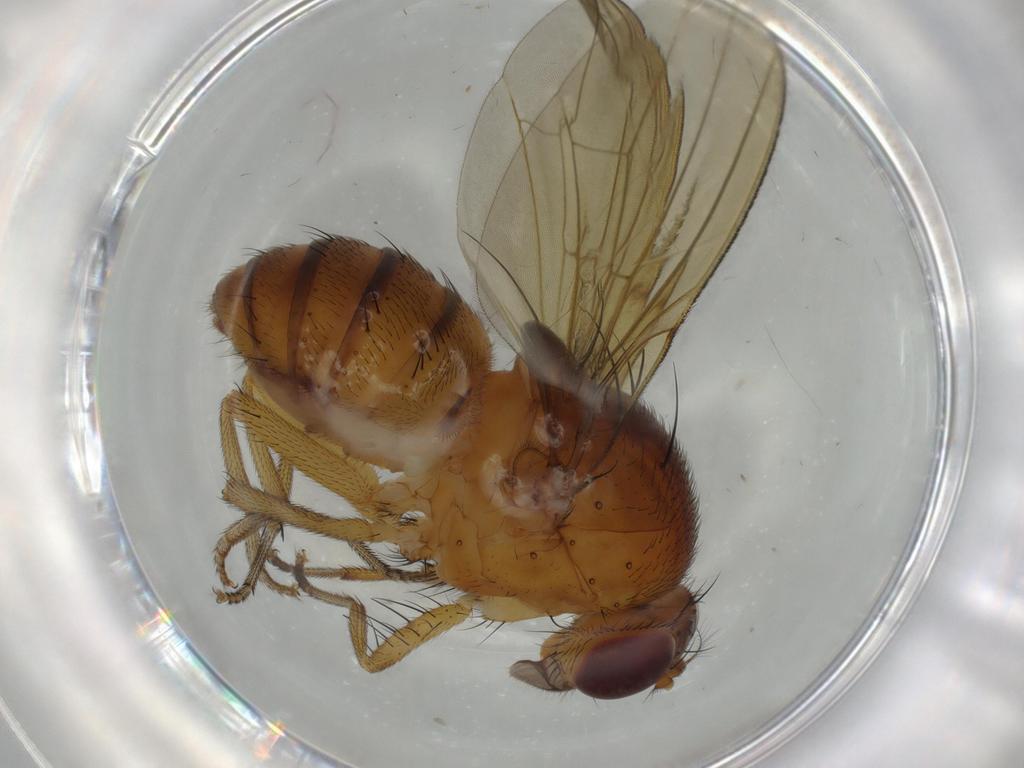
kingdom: Animalia
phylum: Arthropoda
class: Insecta
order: Diptera
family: Cecidomyiidae
